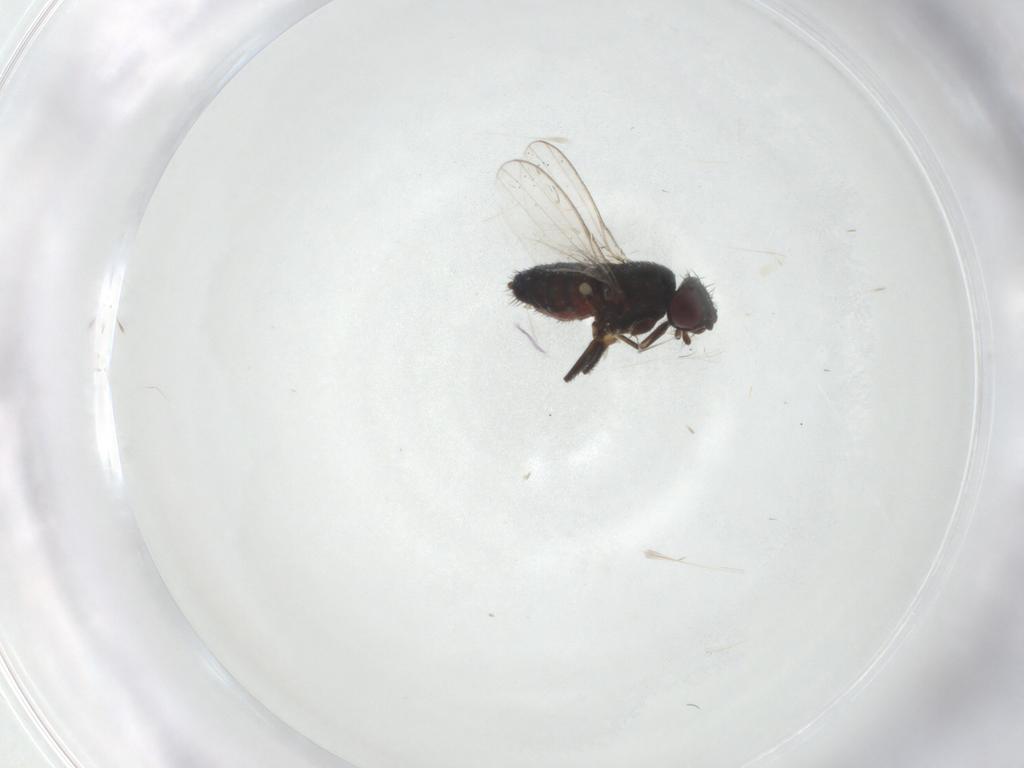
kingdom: Animalia
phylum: Arthropoda
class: Insecta
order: Diptera
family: Milichiidae
